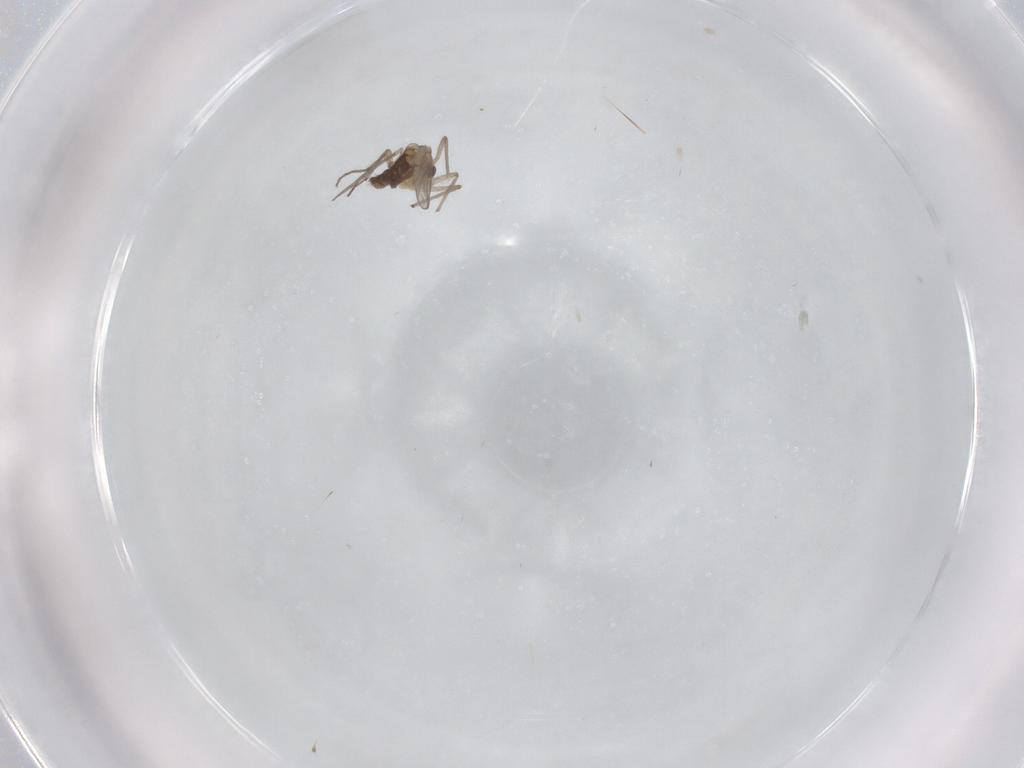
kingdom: Animalia
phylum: Arthropoda
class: Insecta
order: Diptera
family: Chironomidae
